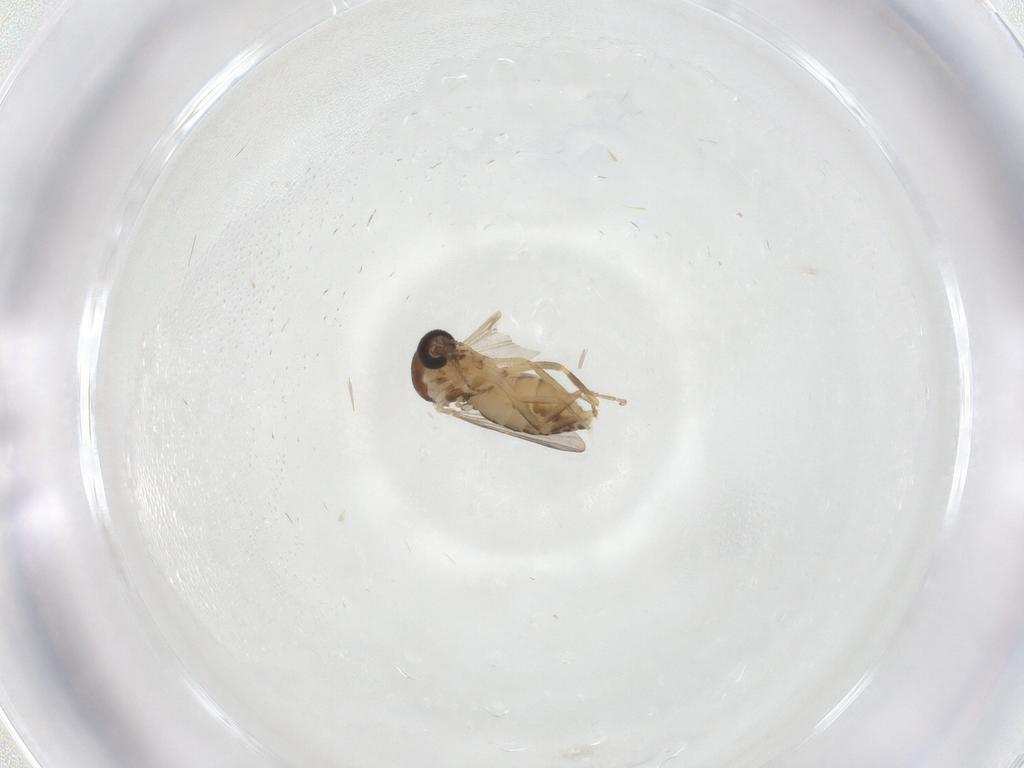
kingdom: Animalia
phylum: Arthropoda
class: Insecta
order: Diptera
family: Ceratopogonidae
